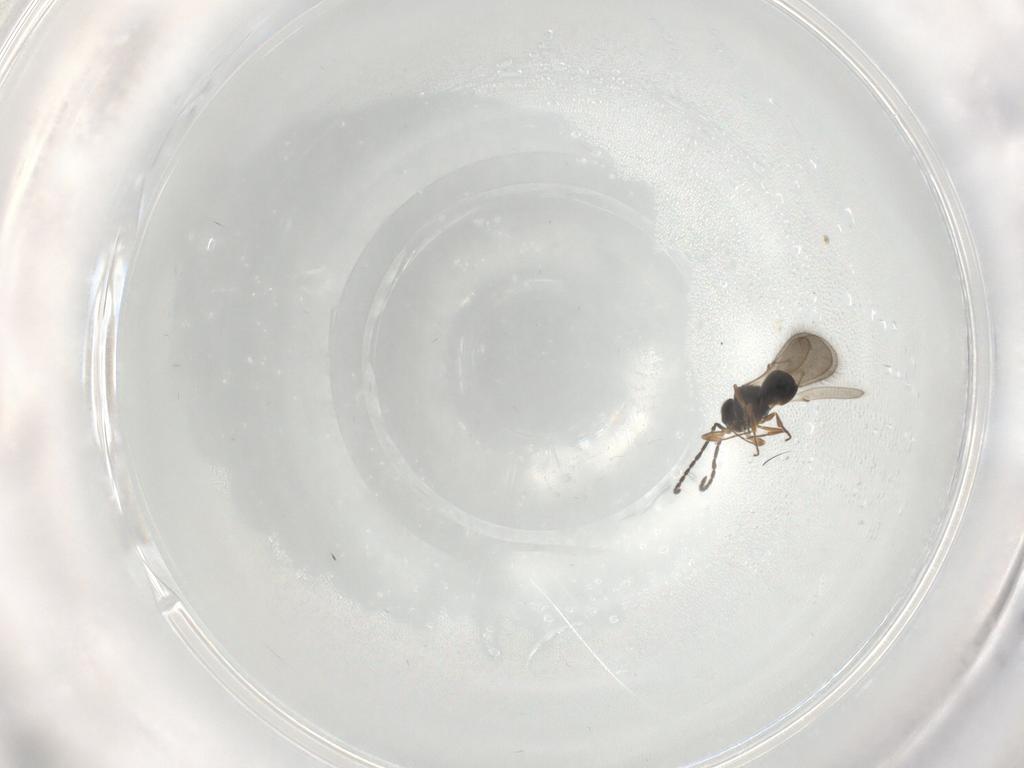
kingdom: Animalia
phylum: Arthropoda
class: Insecta
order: Hymenoptera
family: Scelionidae
